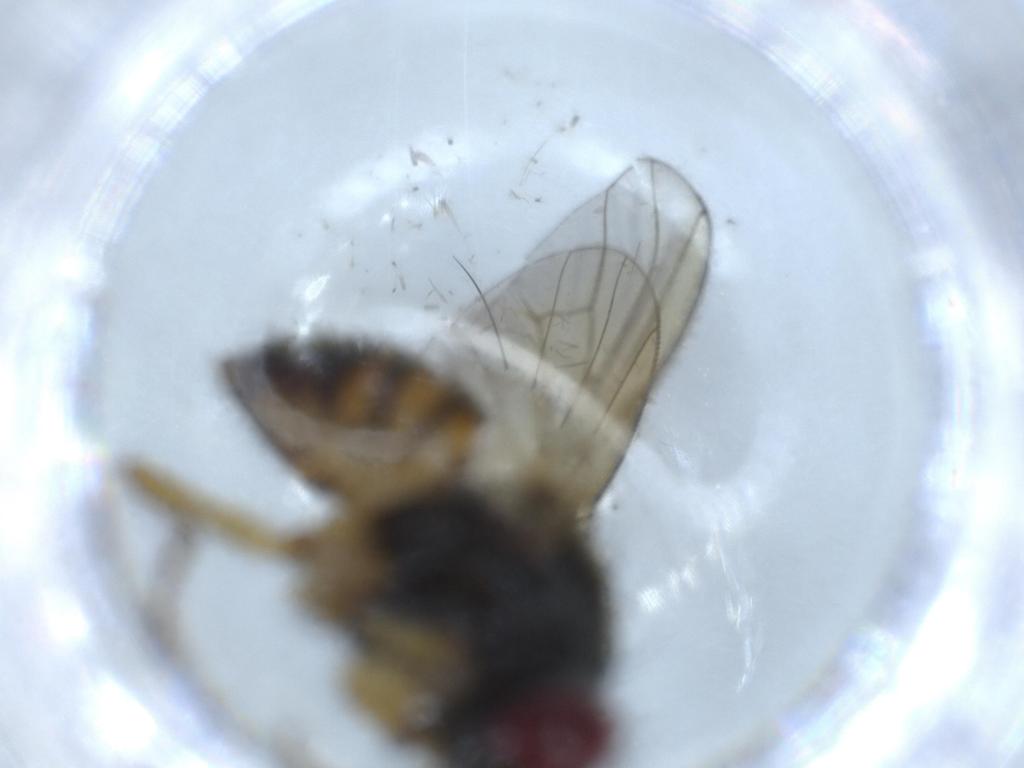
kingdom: Animalia
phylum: Arthropoda
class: Insecta
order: Diptera
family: Muscidae
